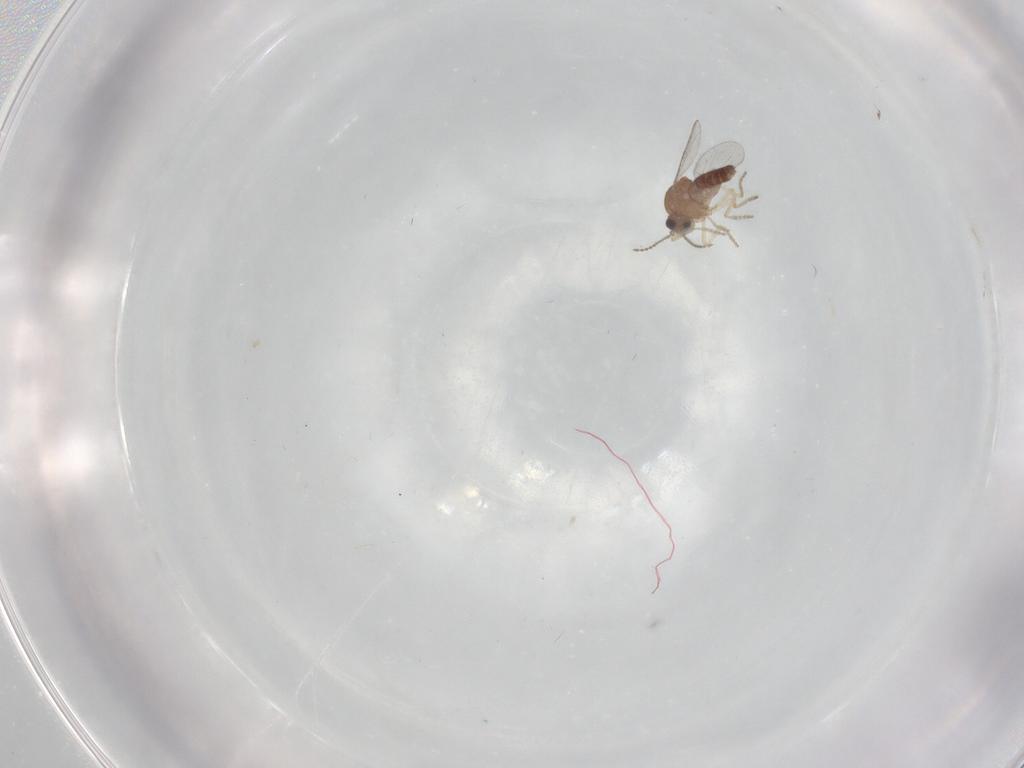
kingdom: Animalia
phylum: Arthropoda
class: Insecta
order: Diptera
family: Ceratopogonidae
